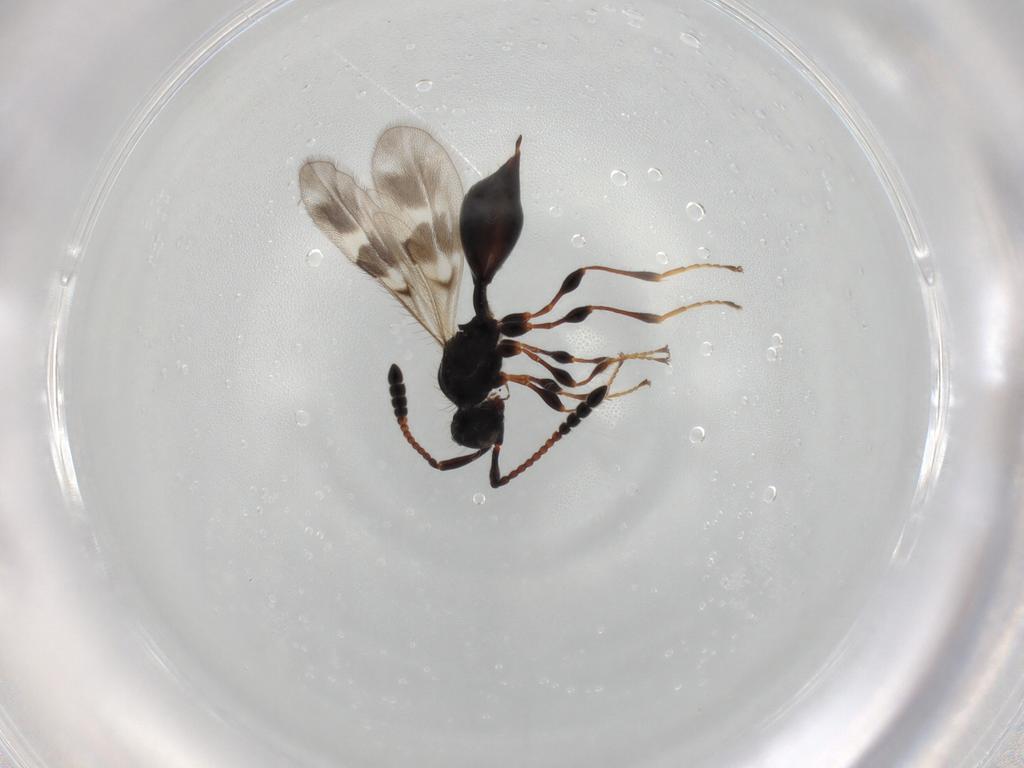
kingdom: Animalia
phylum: Arthropoda
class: Insecta
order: Hymenoptera
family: Diapriidae
